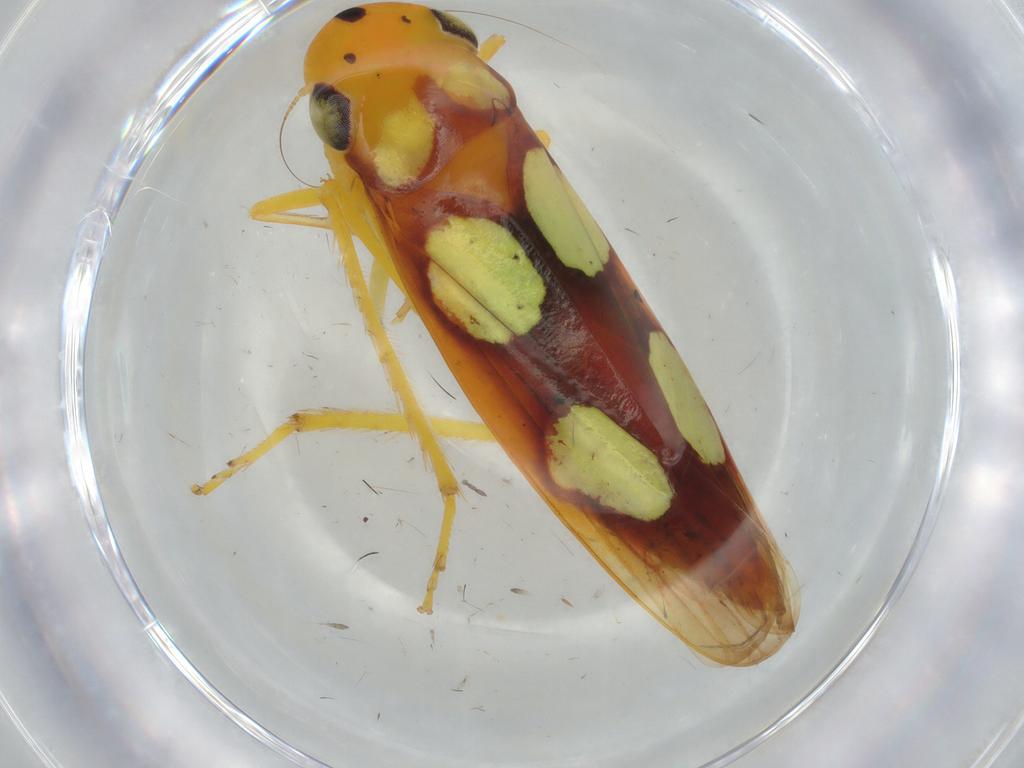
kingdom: Animalia
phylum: Arthropoda
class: Insecta
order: Hemiptera
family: Cicadellidae
